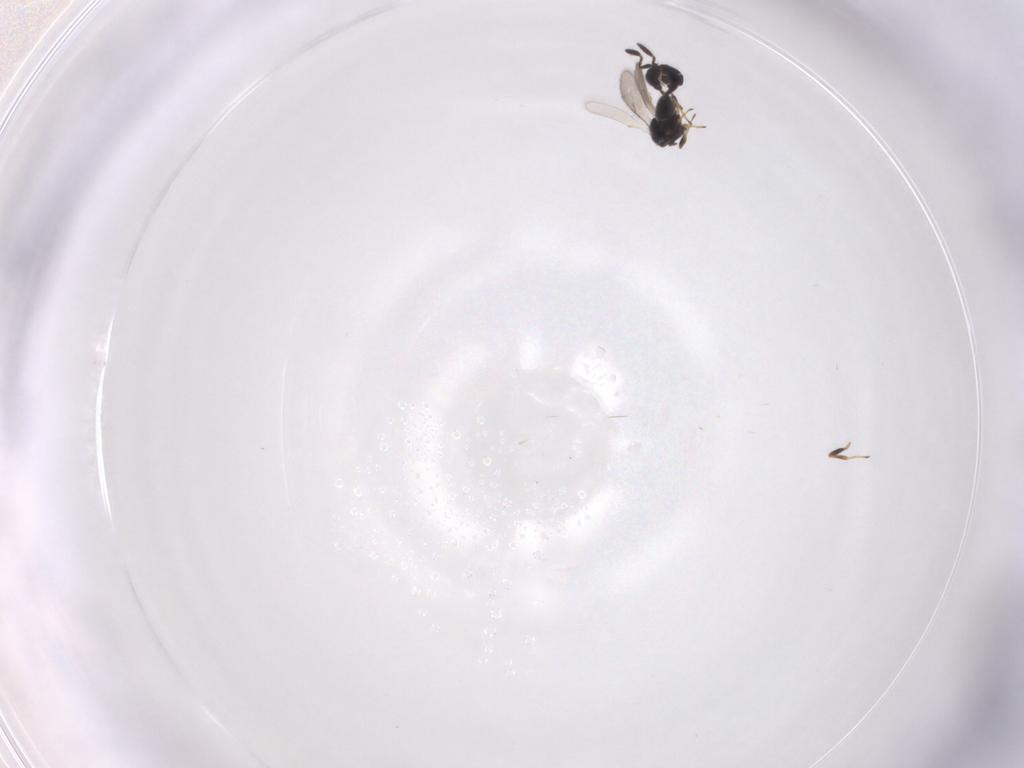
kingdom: Animalia
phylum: Arthropoda
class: Insecta
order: Hymenoptera
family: Scelionidae
